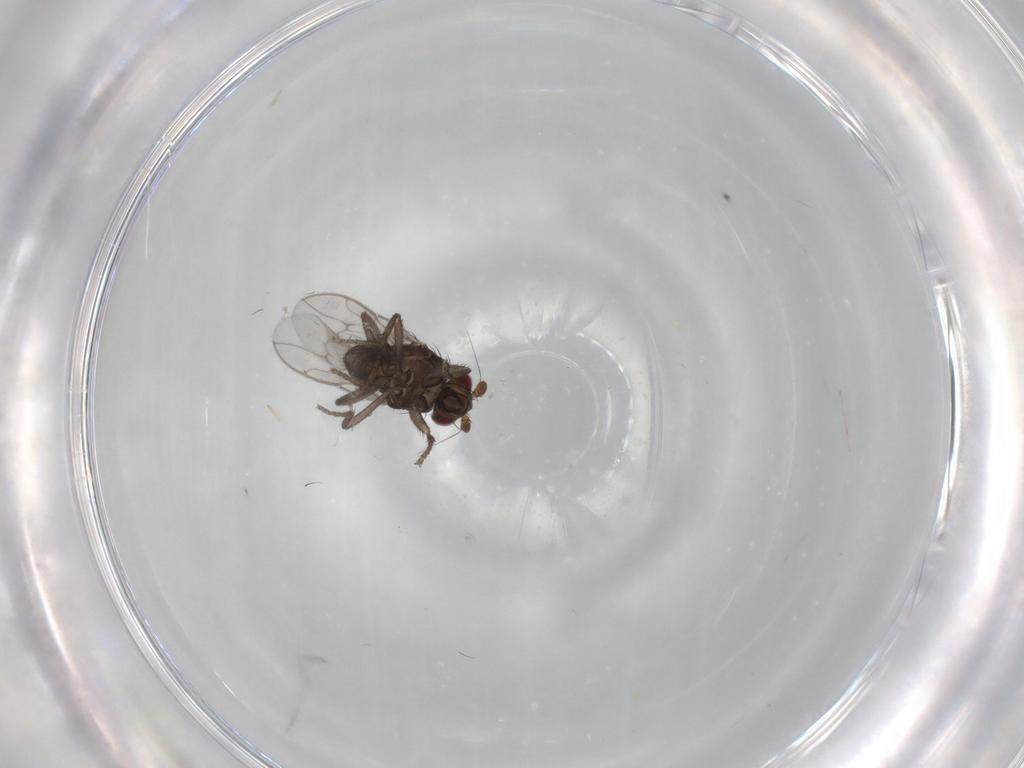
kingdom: Animalia
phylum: Arthropoda
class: Insecta
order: Diptera
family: Sphaeroceridae
